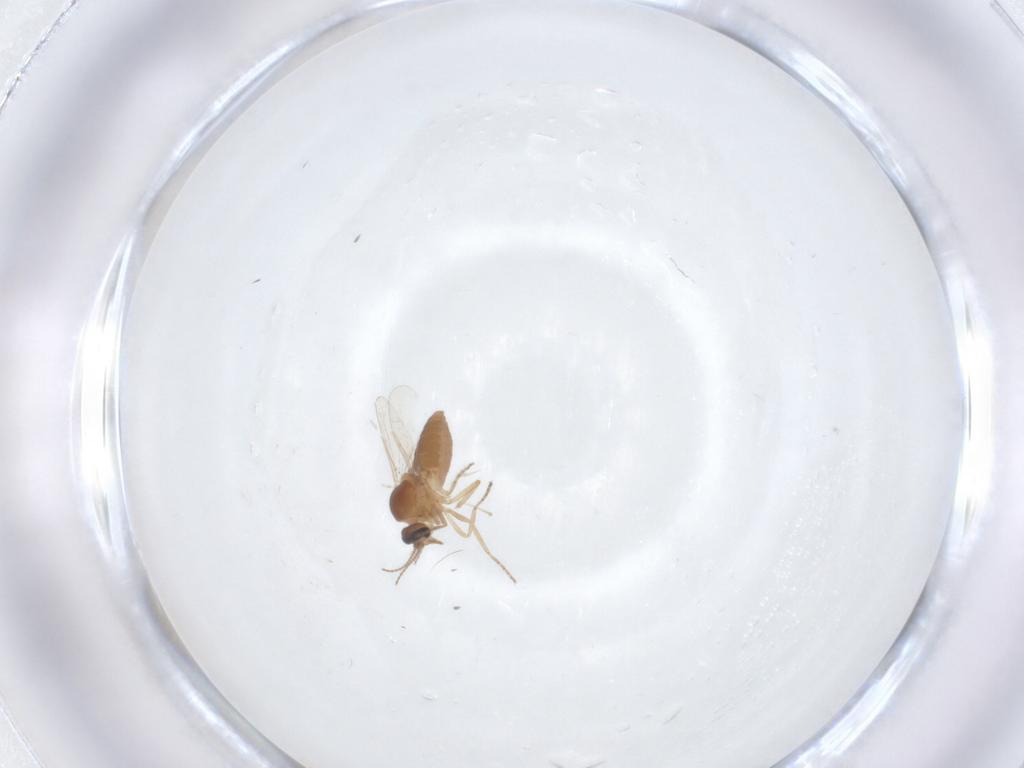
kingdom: Animalia
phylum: Arthropoda
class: Insecta
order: Diptera
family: Ceratopogonidae
